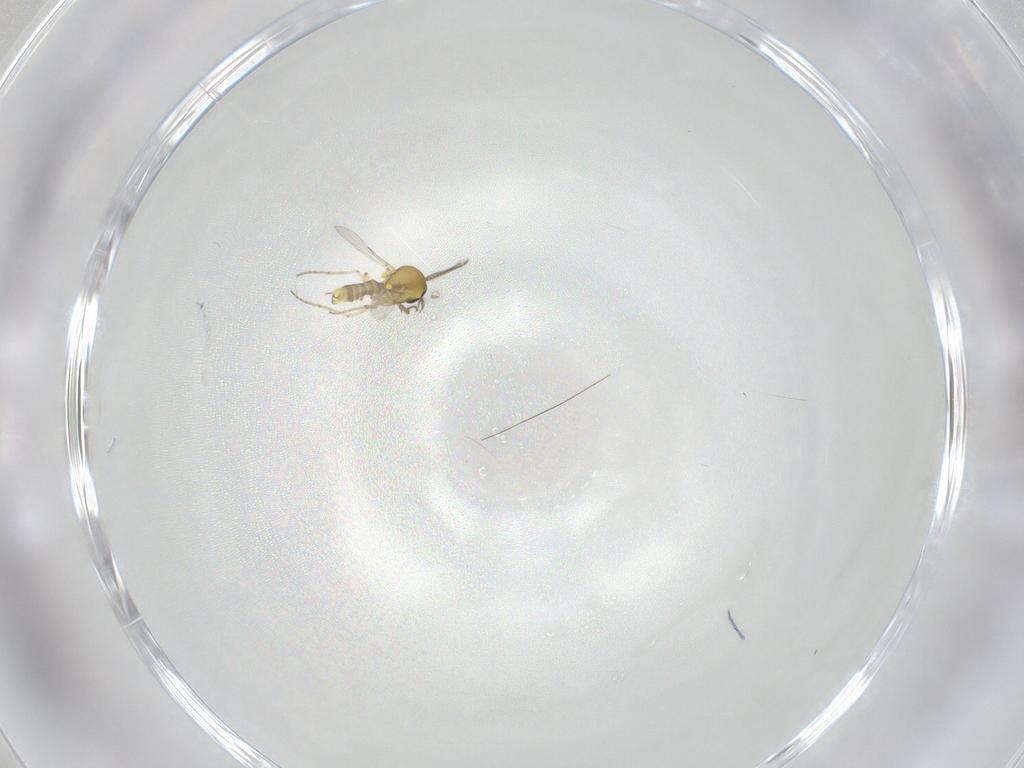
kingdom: Animalia
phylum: Arthropoda
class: Insecta
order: Diptera
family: Ceratopogonidae
